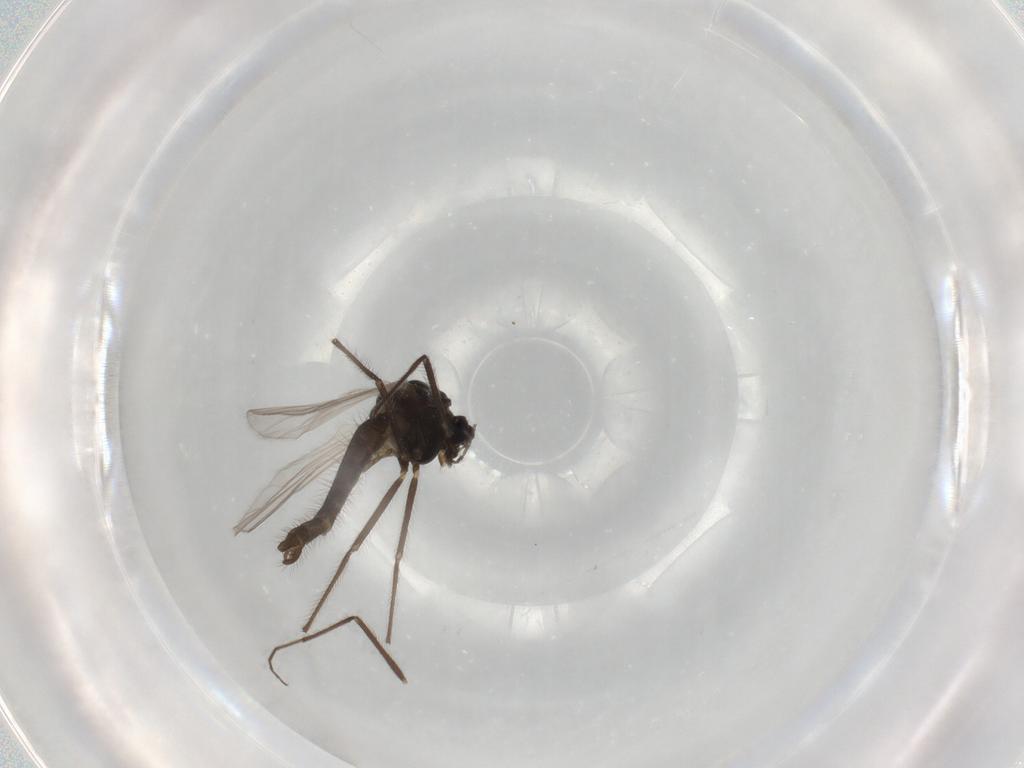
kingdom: Animalia
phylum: Arthropoda
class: Insecta
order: Diptera
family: Chironomidae
